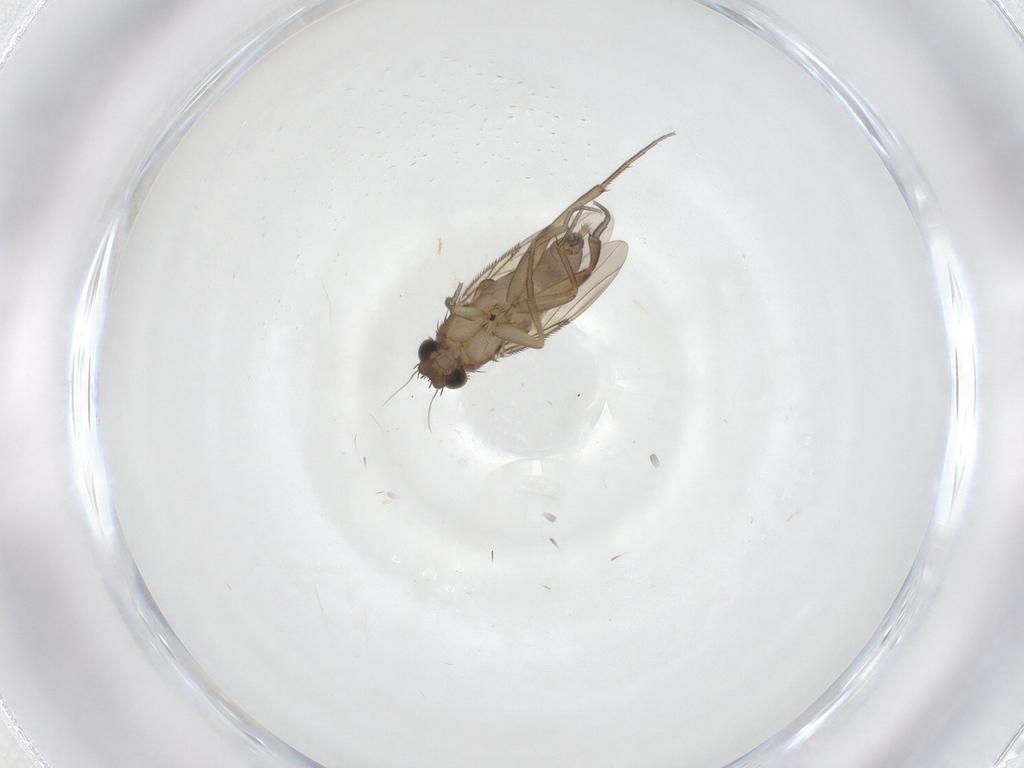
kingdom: Animalia
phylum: Arthropoda
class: Insecta
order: Diptera
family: Phoridae
